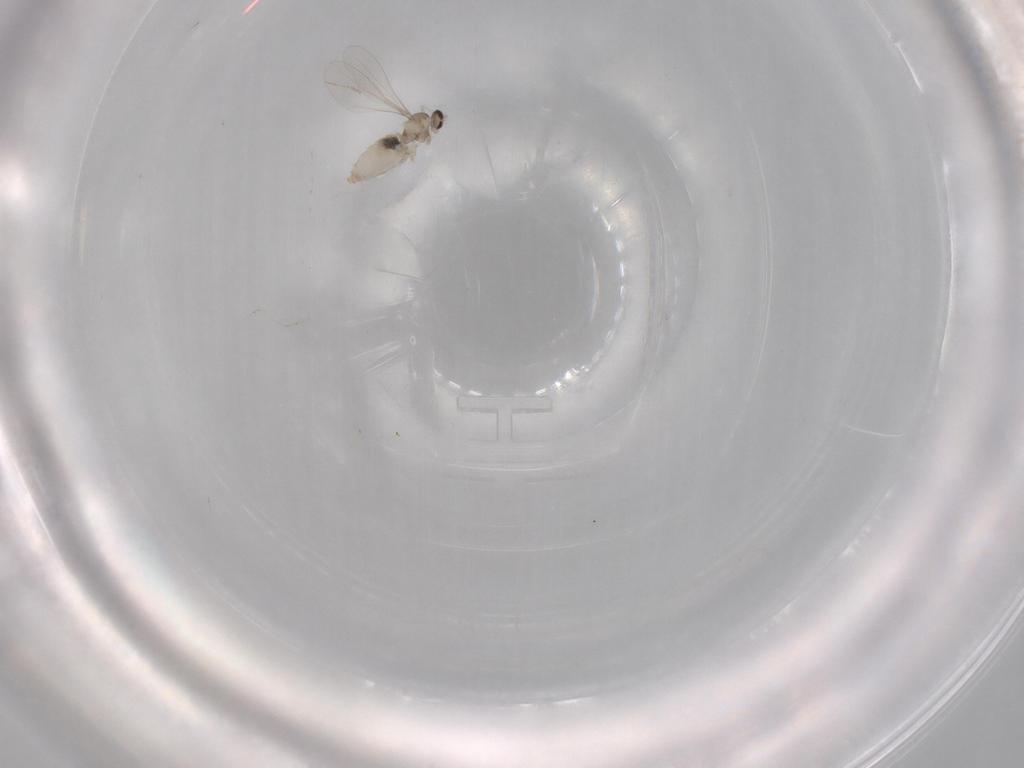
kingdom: Animalia
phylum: Arthropoda
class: Insecta
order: Diptera
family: Cecidomyiidae
